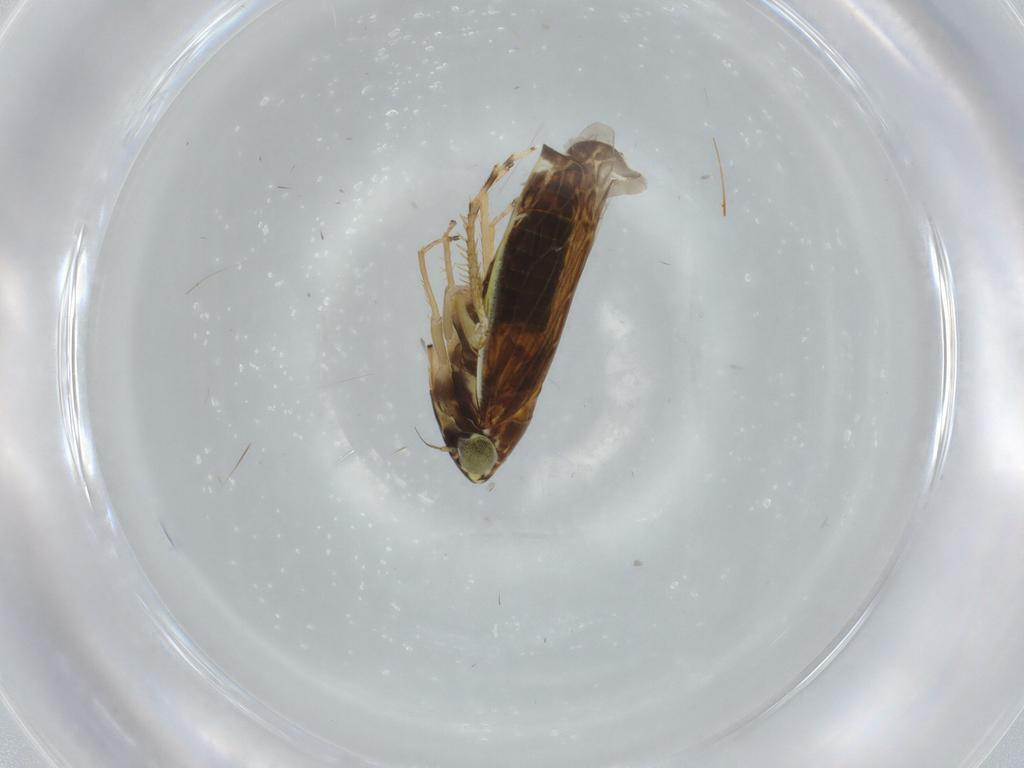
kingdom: Animalia
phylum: Arthropoda
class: Insecta
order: Hemiptera
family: Cicadellidae
